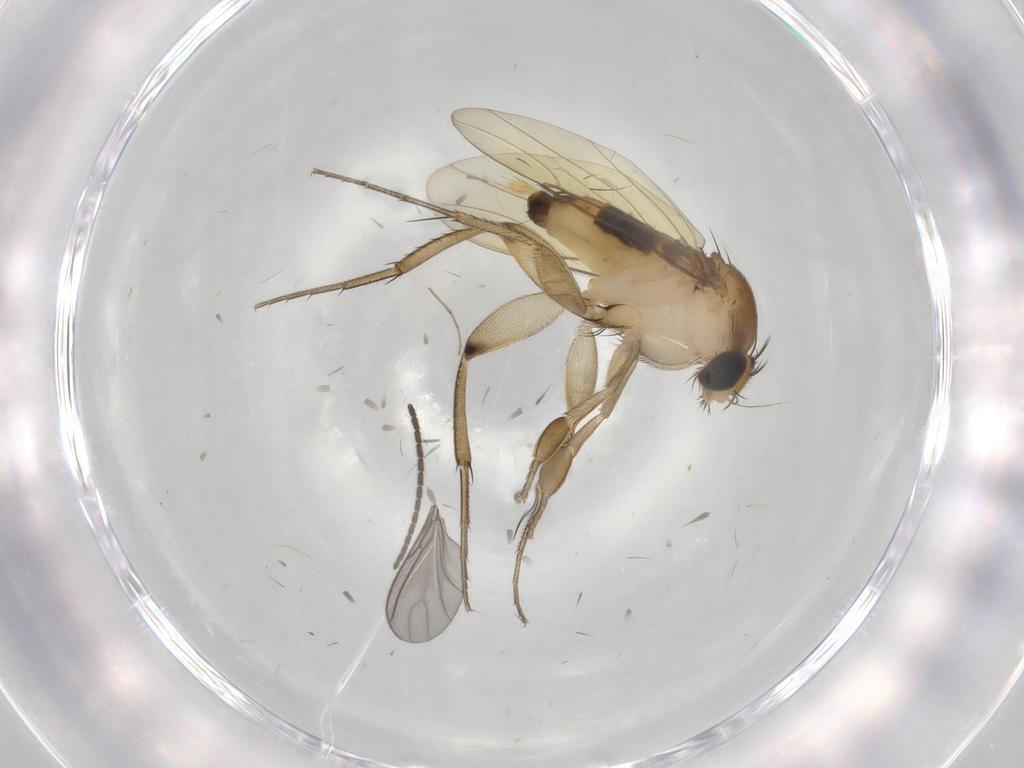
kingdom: Animalia
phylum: Arthropoda
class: Insecta
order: Diptera
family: Phoridae
